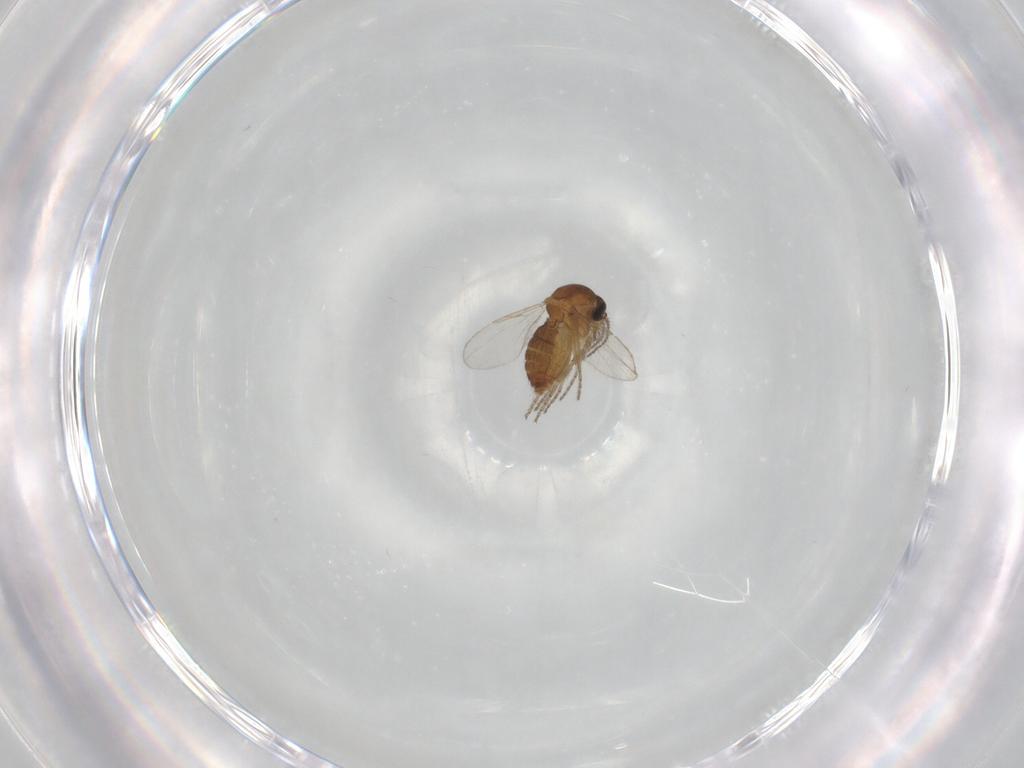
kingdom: Animalia
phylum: Arthropoda
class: Insecta
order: Diptera
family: Ceratopogonidae
